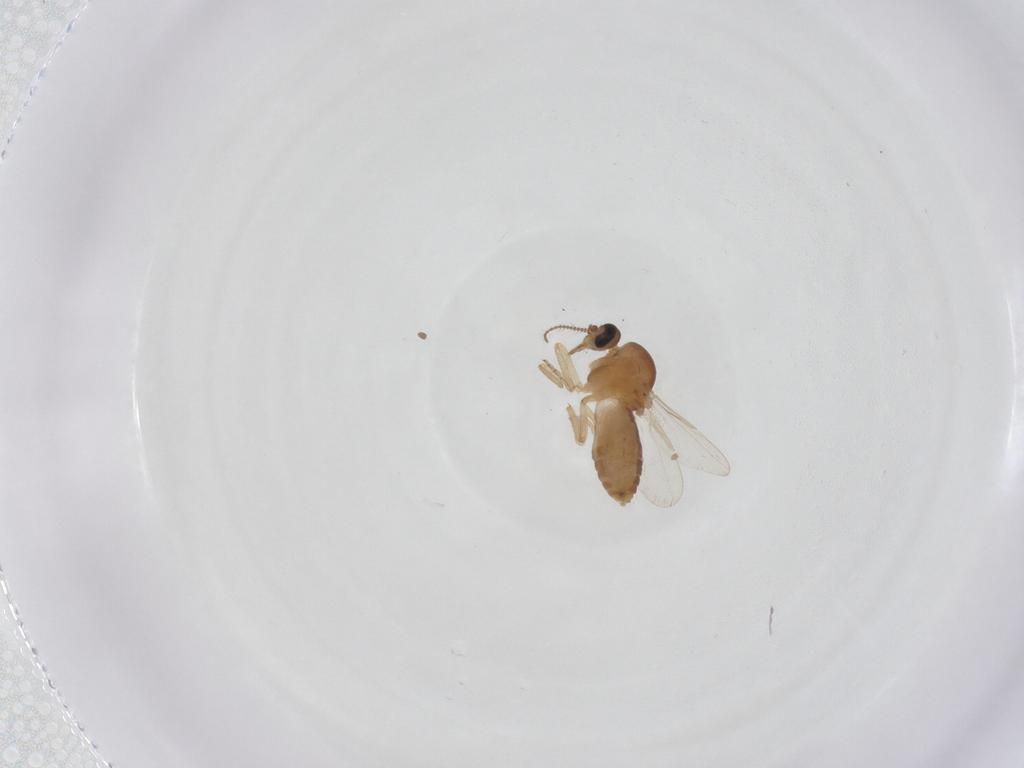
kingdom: Animalia
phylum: Arthropoda
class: Insecta
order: Diptera
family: Ceratopogonidae
